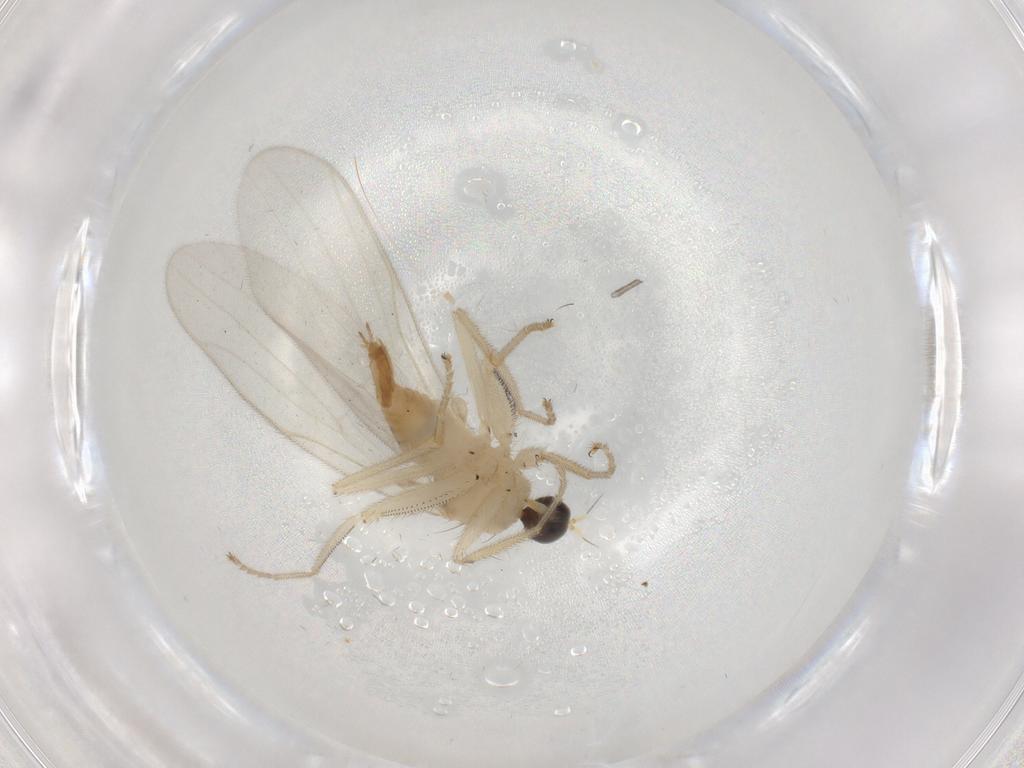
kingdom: Animalia
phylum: Arthropoda
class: Insecta
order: Diptera
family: Hybotidae
